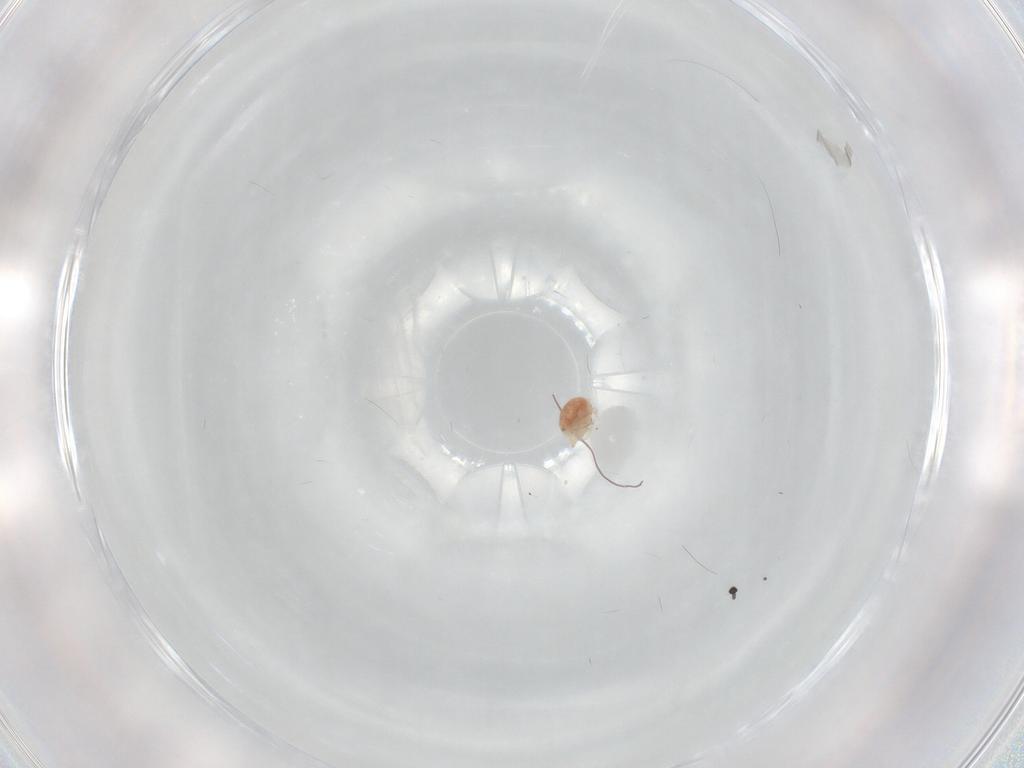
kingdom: Animalia
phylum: Arthropoda
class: Arachnida
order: Trombidiformes
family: Hygrobatidae
